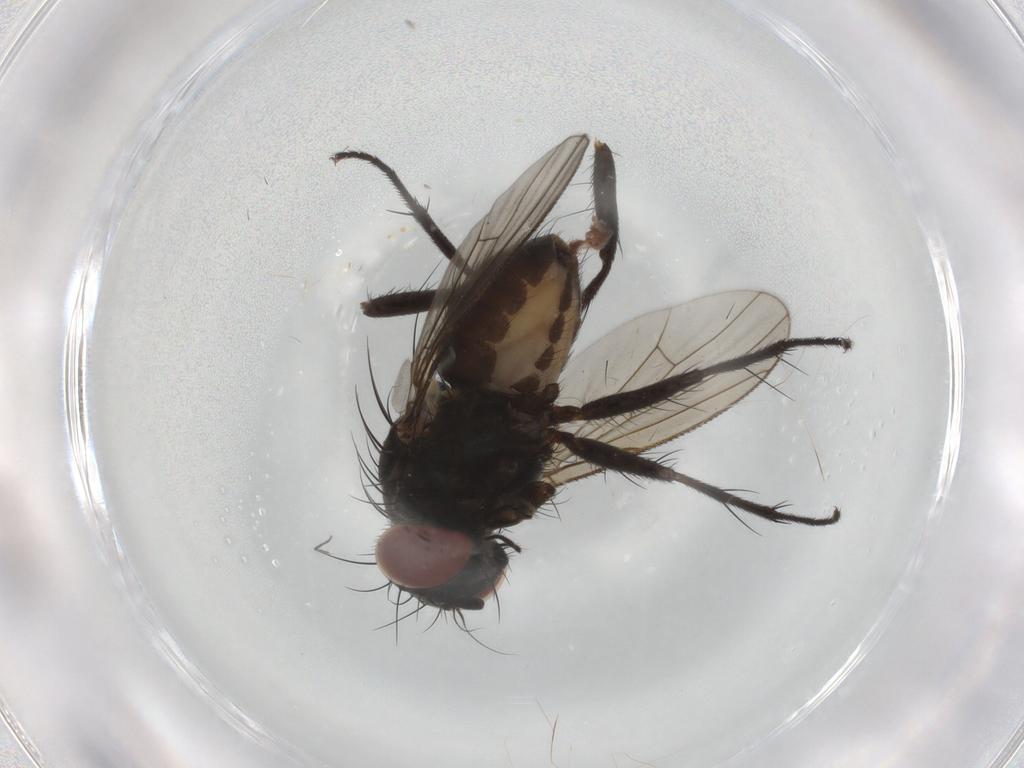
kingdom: Animalia
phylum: Arthropoda
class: Insecta
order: Diptera
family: Muscidae
